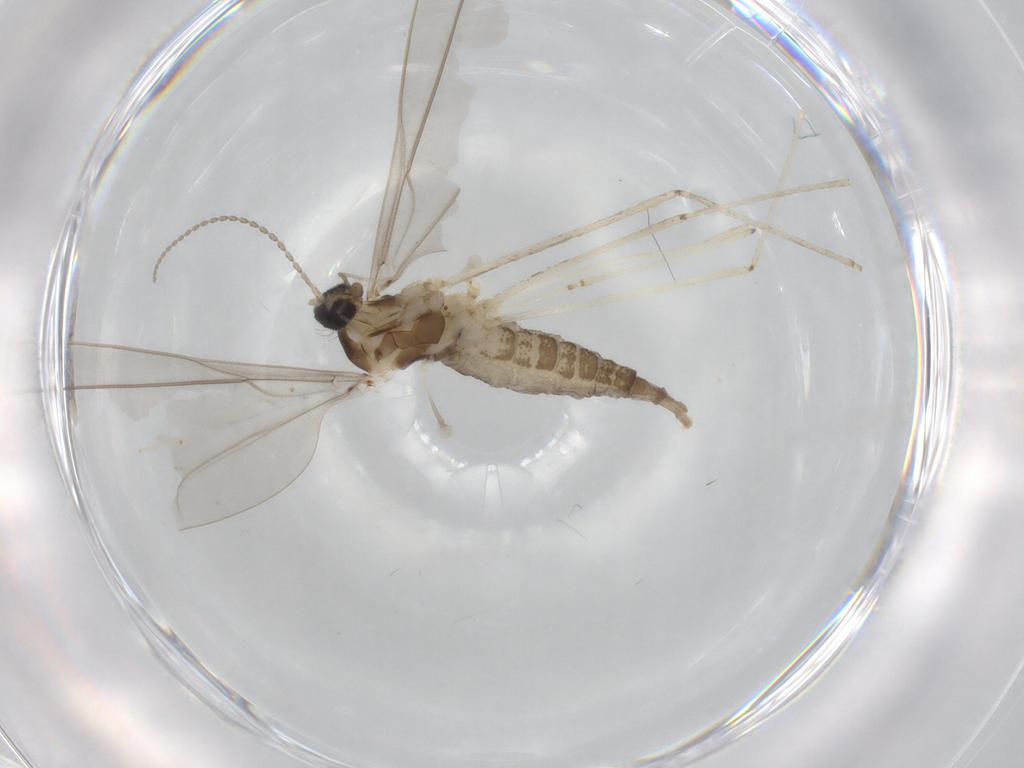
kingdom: Animalia
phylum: Arthropoda
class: Insecta
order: Diptera
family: Cecidomyiidae
